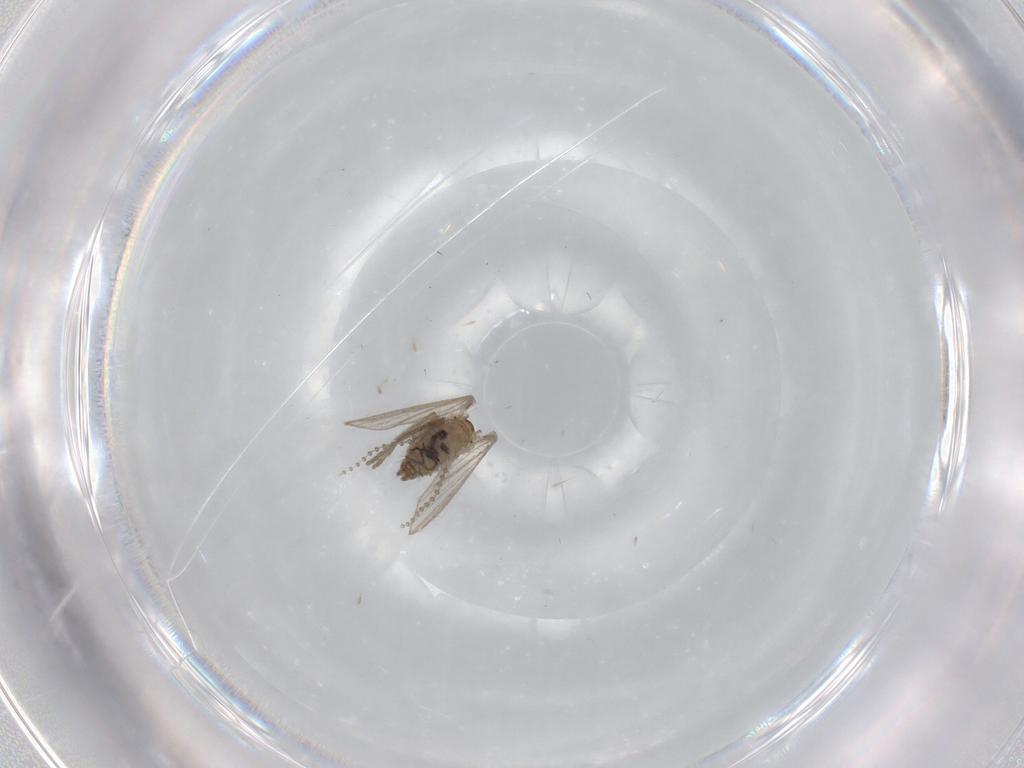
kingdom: Animalia
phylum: Arthropoda
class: Insecta
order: Diptera
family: Psychodidae
